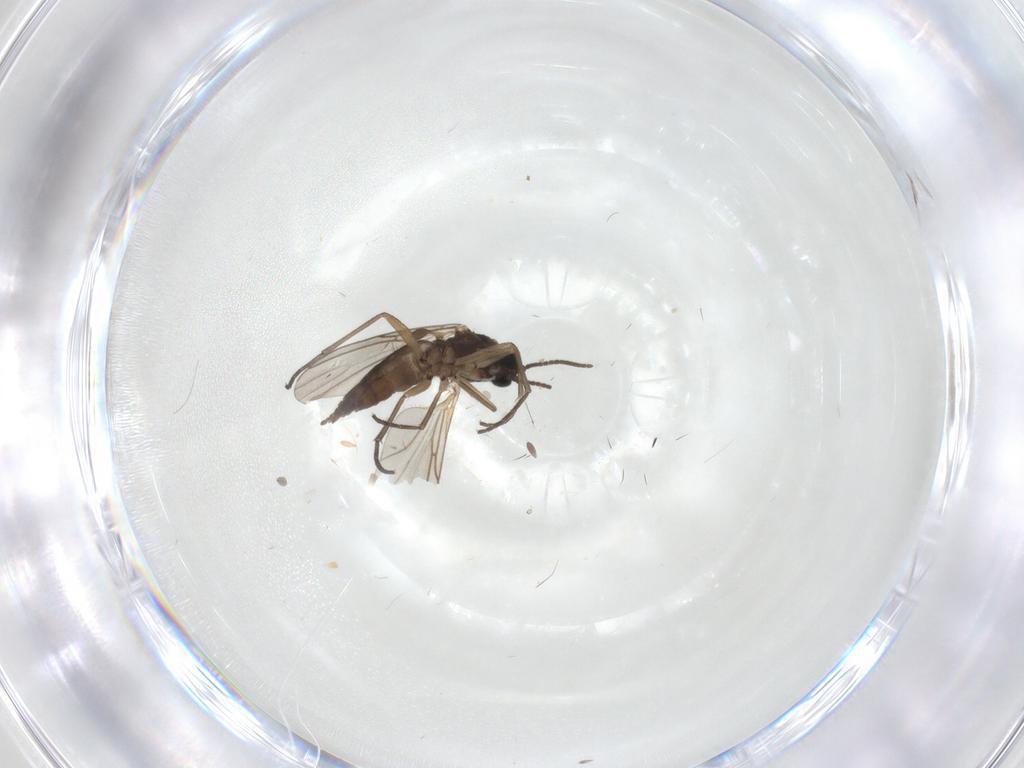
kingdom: Animalia
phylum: Arthropoda
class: Insecta
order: Diptera
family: Sciaridae
